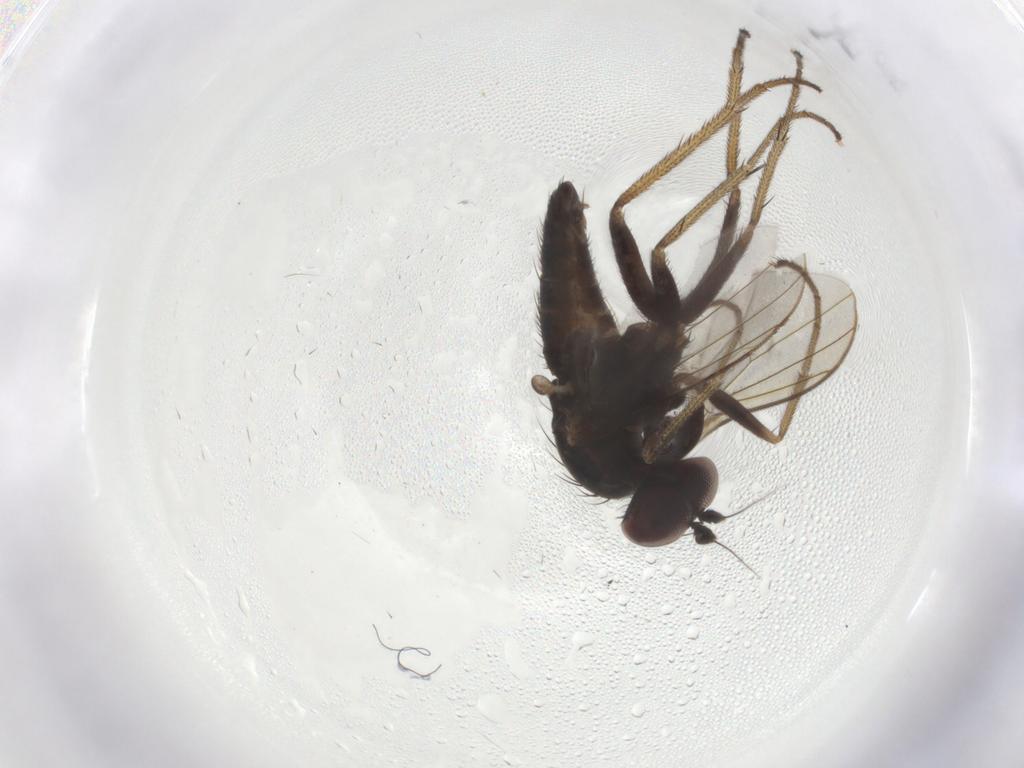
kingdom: Animalia
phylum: Arthropoda
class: Insecta
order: Diptera
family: Dolichopodidae
